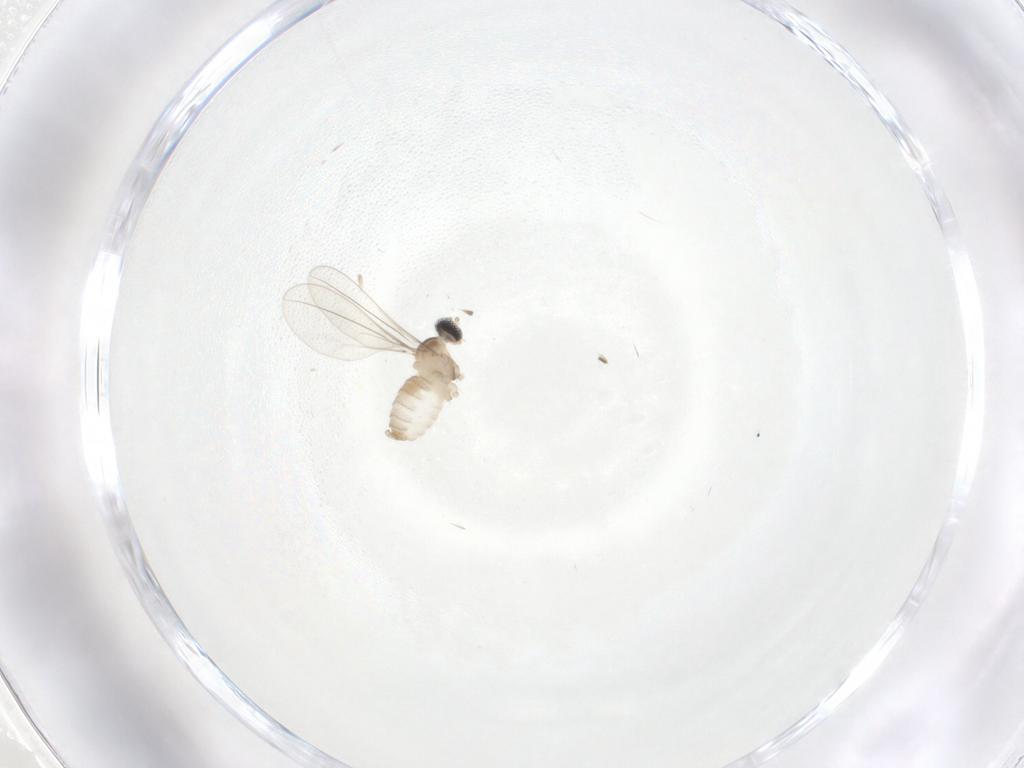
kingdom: Animalia
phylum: Arthropoda
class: Insecta
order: Diptera
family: Cecidomyiidae
